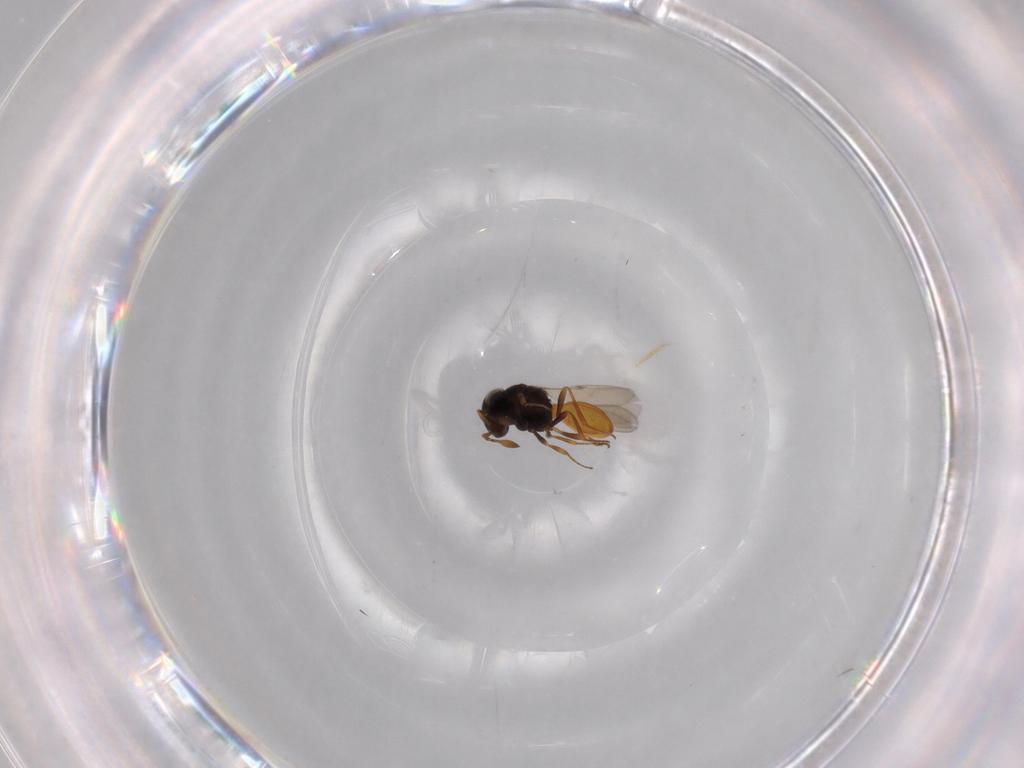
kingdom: Animalia
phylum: Arthropoda
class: Insecta
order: Hymenoptera
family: Scelionidae
